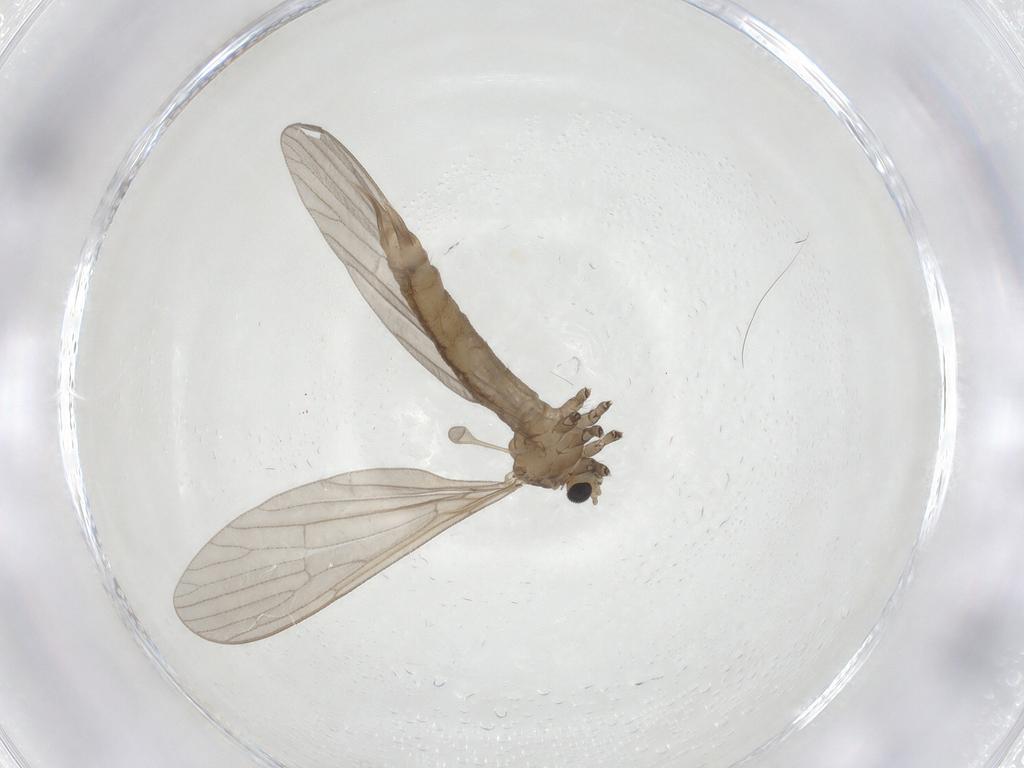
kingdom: Animalia
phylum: Arthropoda
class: Insecta
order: Diptera
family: Limoniidae
